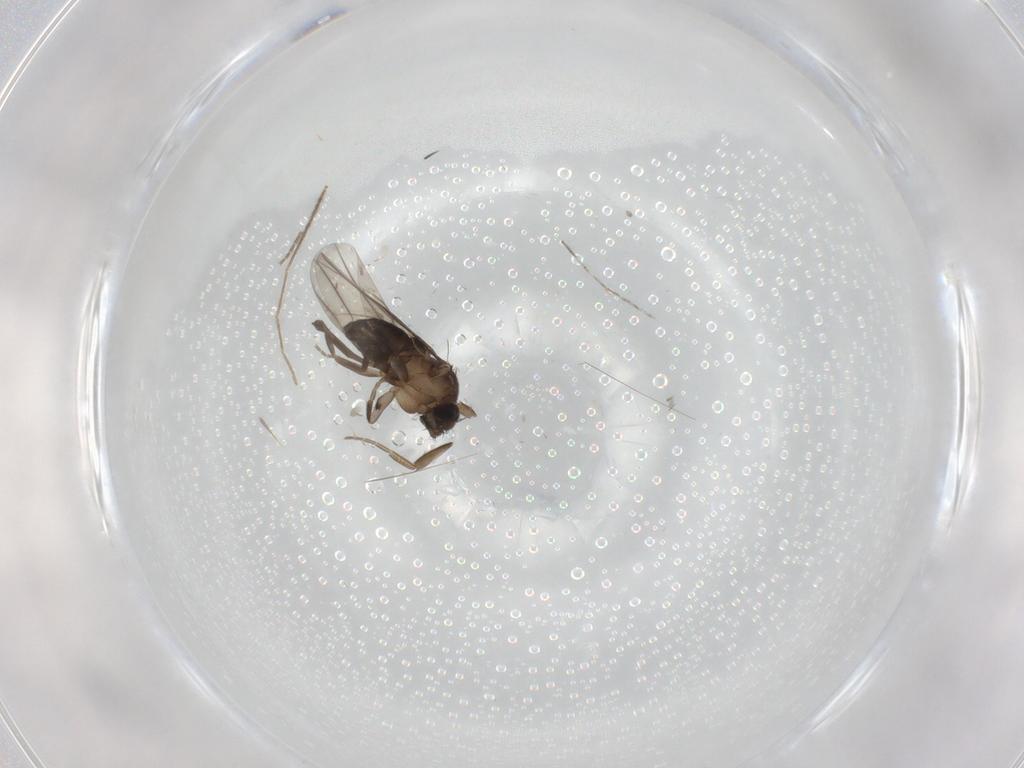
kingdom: Animalia
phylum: Arthropoda
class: Insecta
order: Diptera
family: Phoridae
